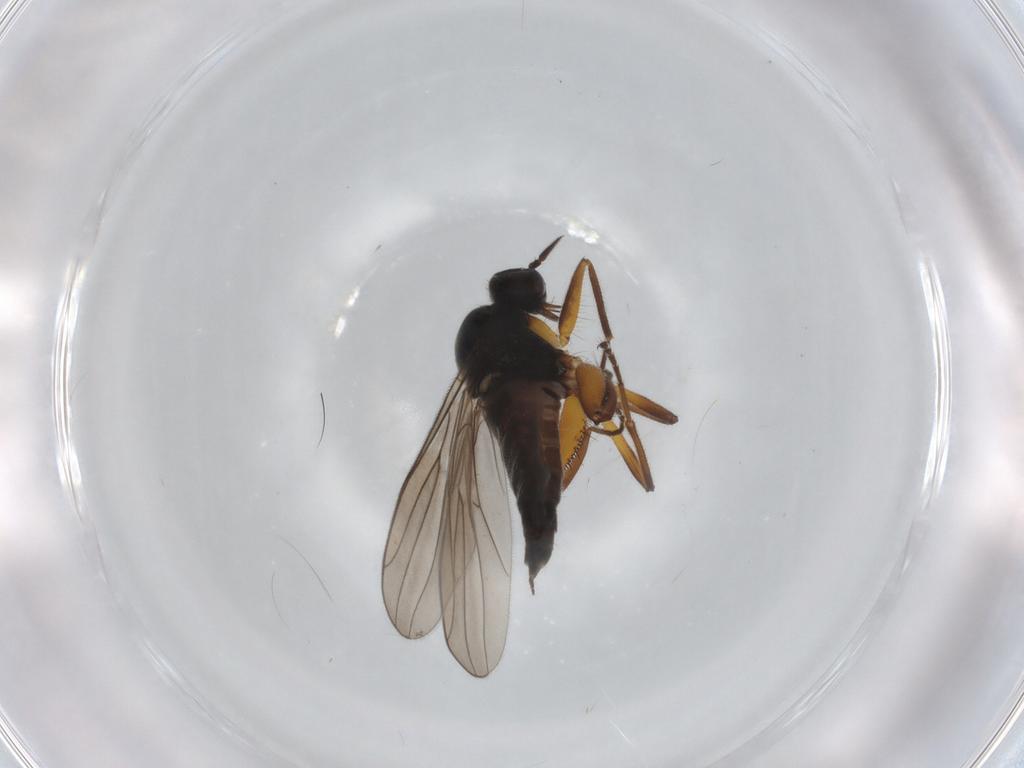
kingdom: Animalia
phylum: Arthropoda
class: Insecta
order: Diptera
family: Hybotidae
